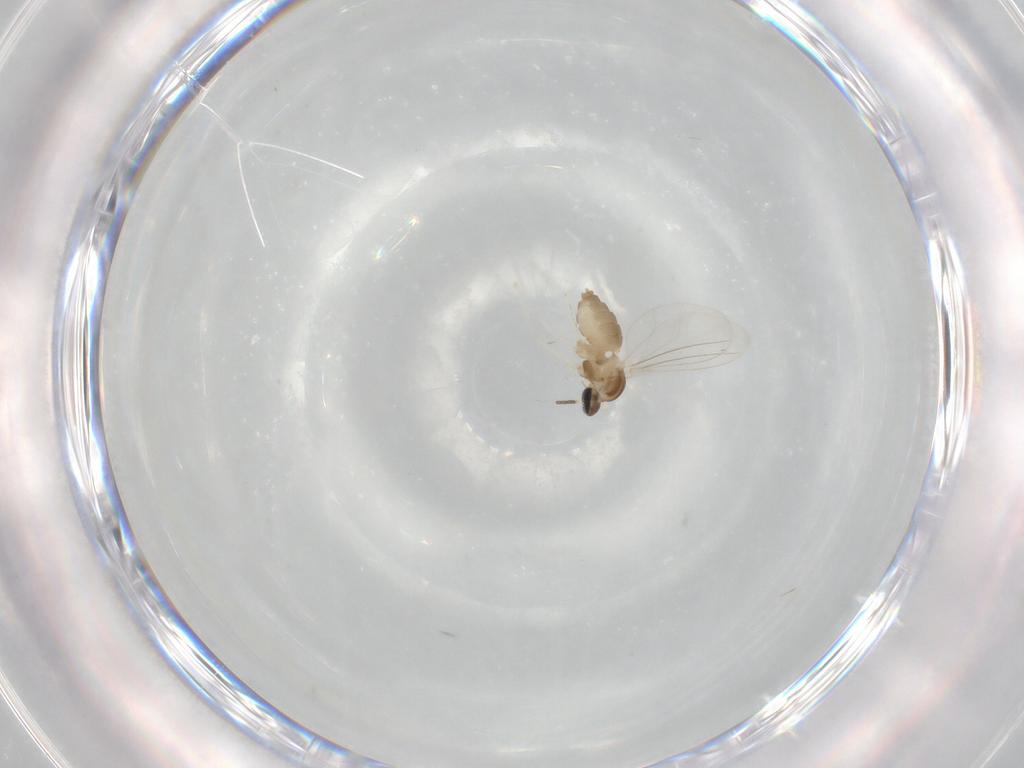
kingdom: Animalia
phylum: Arthropoda
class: Insecta
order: Diptera
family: Cecidomyiidae
